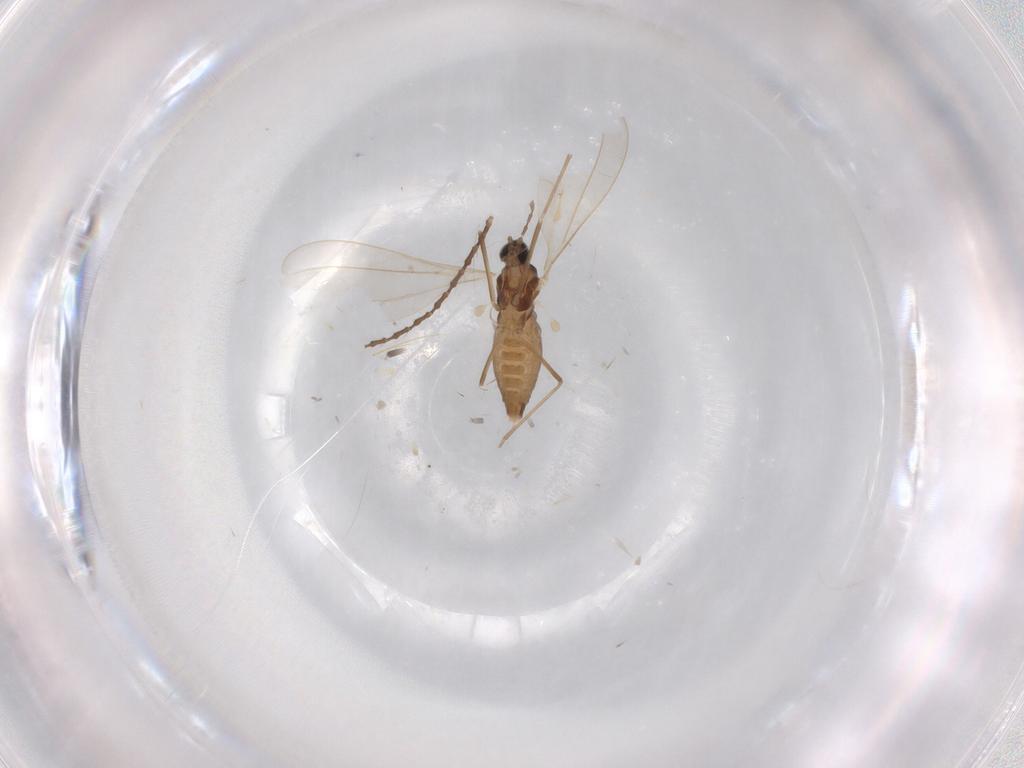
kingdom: Animalia
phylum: Arthropoda
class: Insecta
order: Diptera
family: Cecidomyiidae
